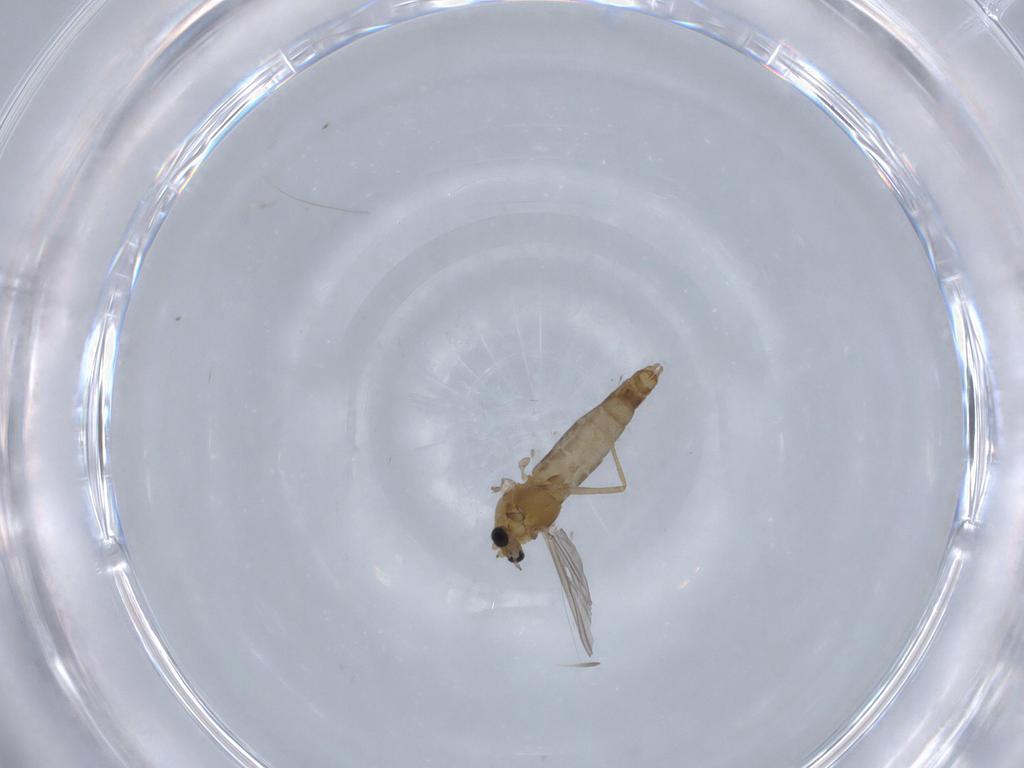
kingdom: Animalia
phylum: Arthropoda
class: Insecta
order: Diptera
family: Chironomidae
